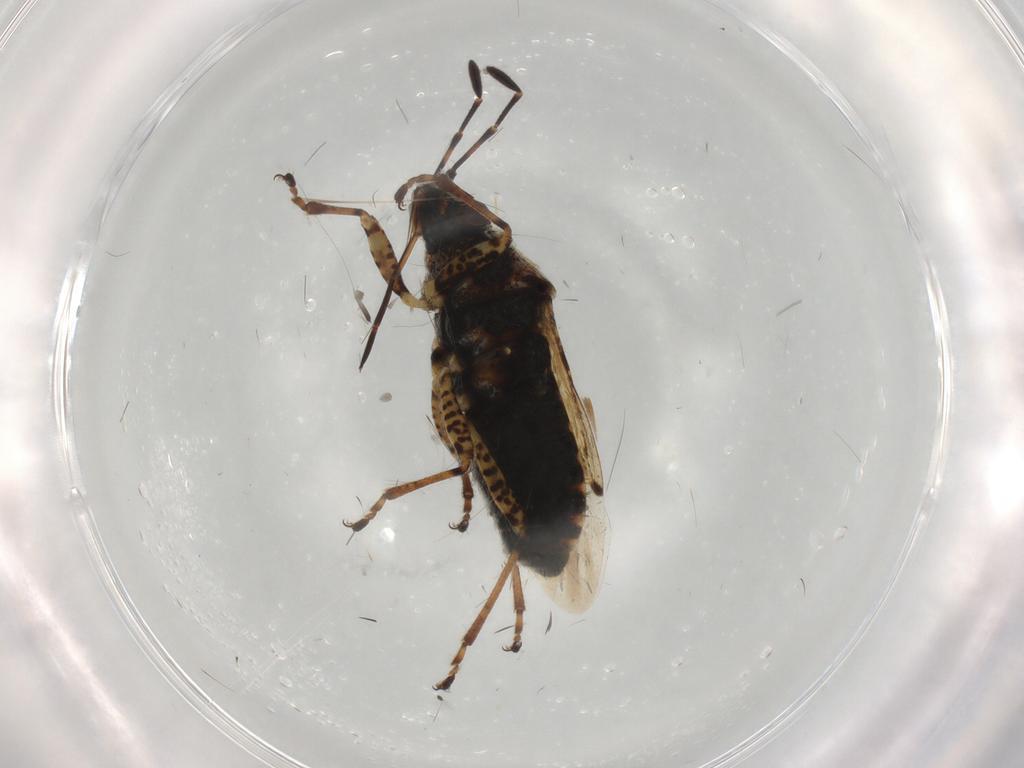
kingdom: Animalia
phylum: Arthropoda
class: Insecta
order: Hemiptera
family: Lygaeidae
